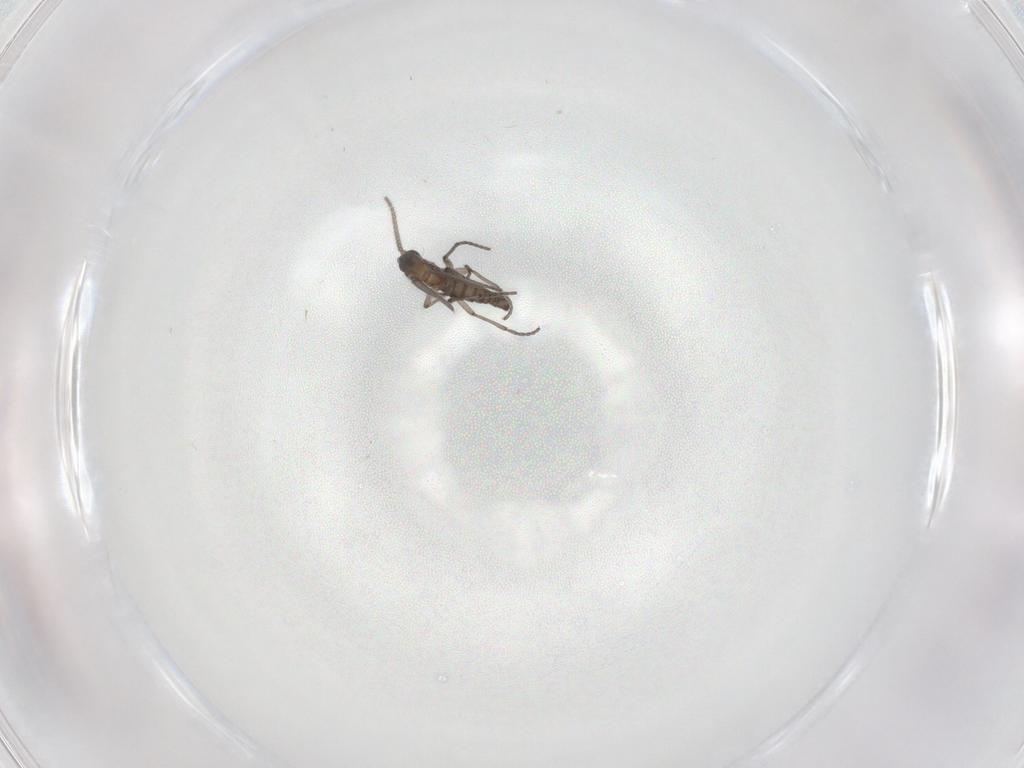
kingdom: Animalia
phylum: Arthropoda
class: Insecta
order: Diptera
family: Sciaridae
